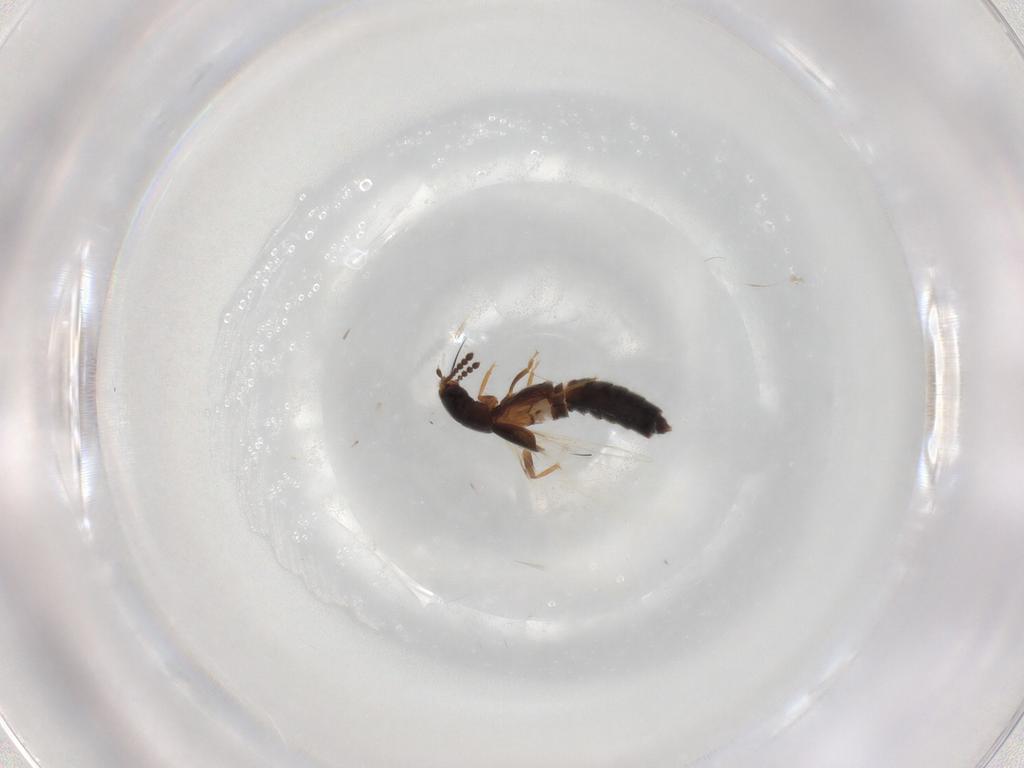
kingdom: Animalia
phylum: Arthropoda
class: Insecta
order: Coleoptera
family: Staphylinidae
